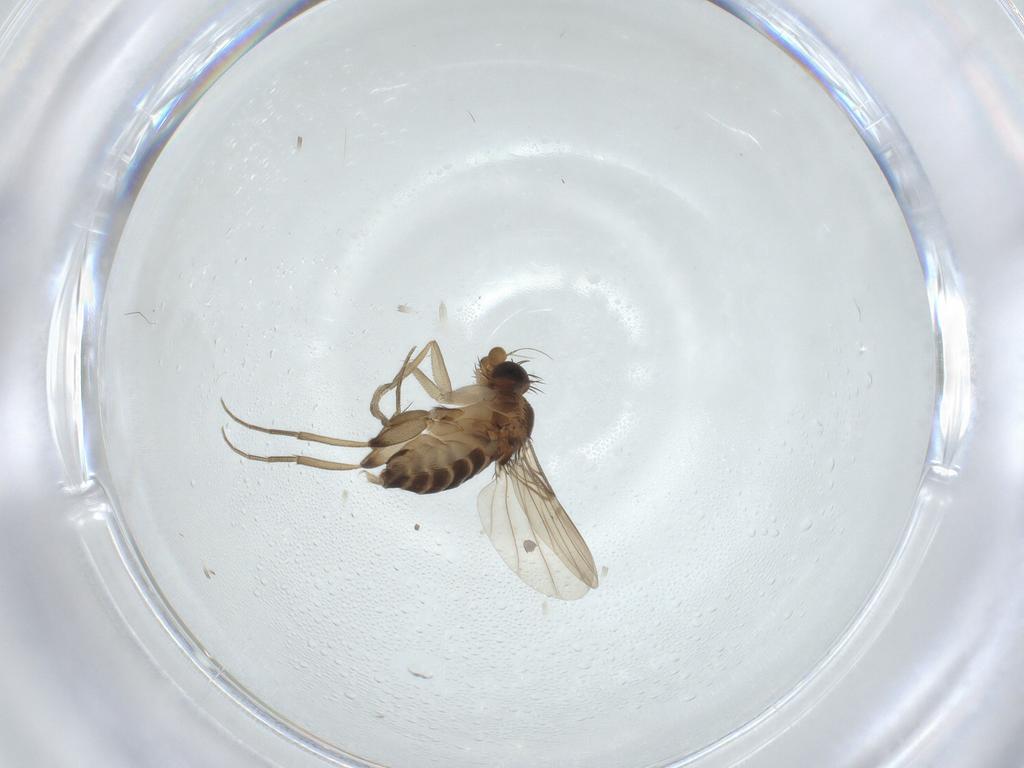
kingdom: Animalia
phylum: Arthropoda
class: Insecta
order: Diptera
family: Phoridae
